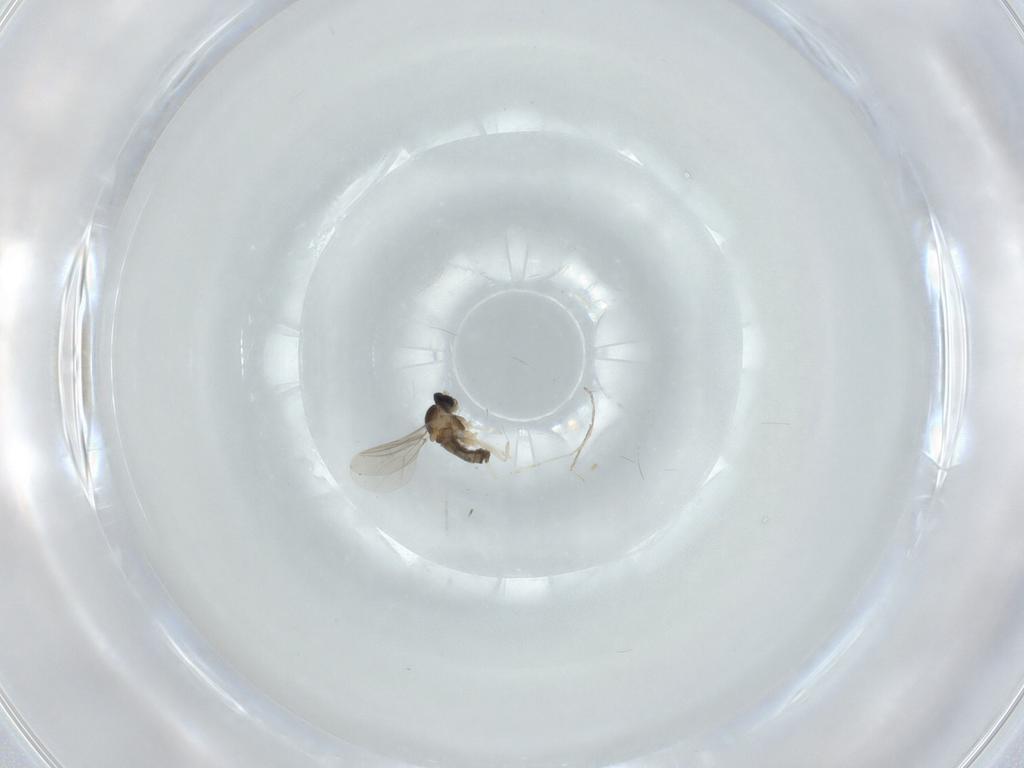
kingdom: Animalia
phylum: Arthropoda
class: Insecta
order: Diptera
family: Cecidomyiidae
